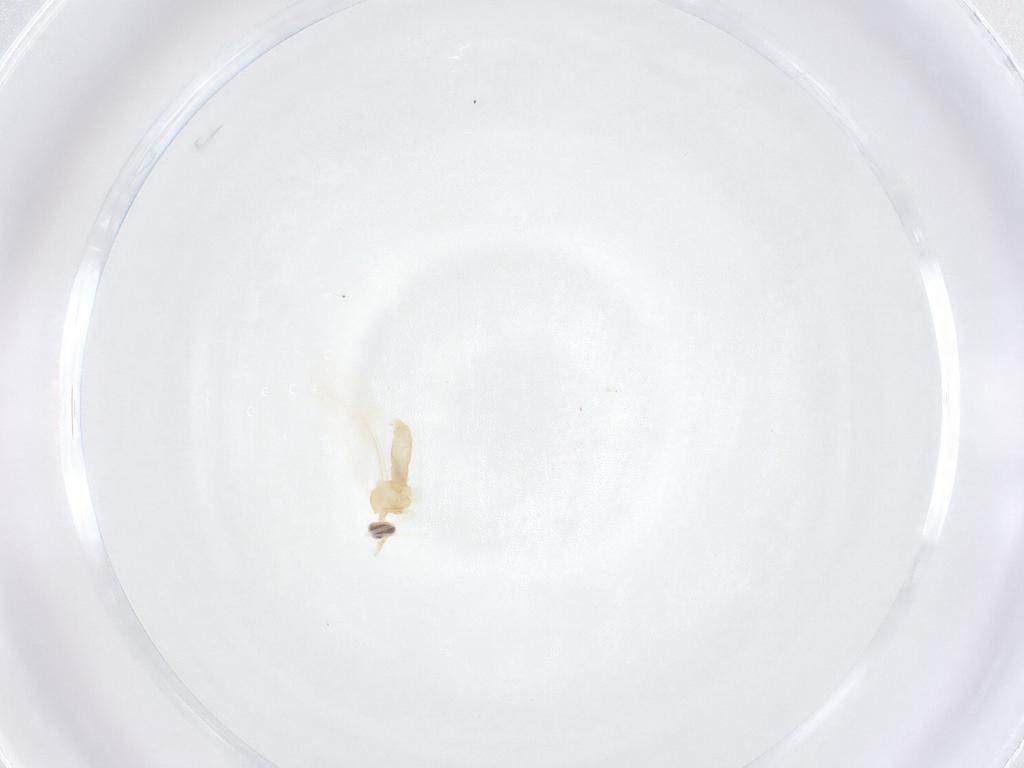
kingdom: Animalia
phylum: Arthropoda
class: Insecta
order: Diptera
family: Cecidomyiidae
